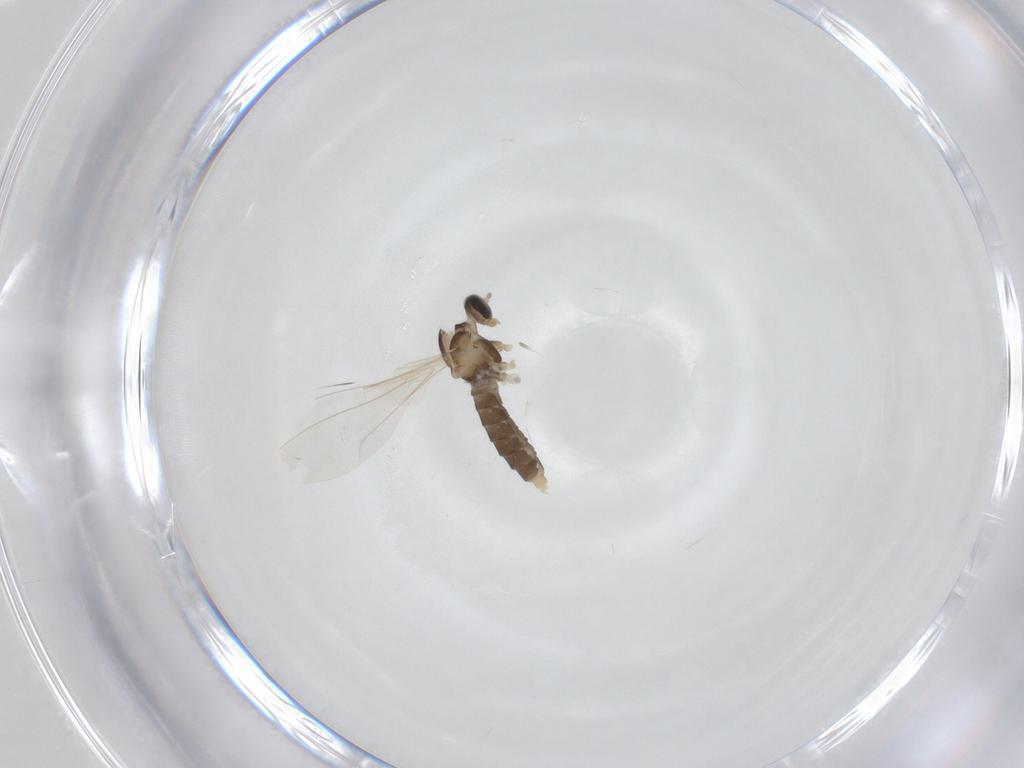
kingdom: Animalia
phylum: Arthropoda
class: Insecta
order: Diptera
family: Cecidomyiidae
